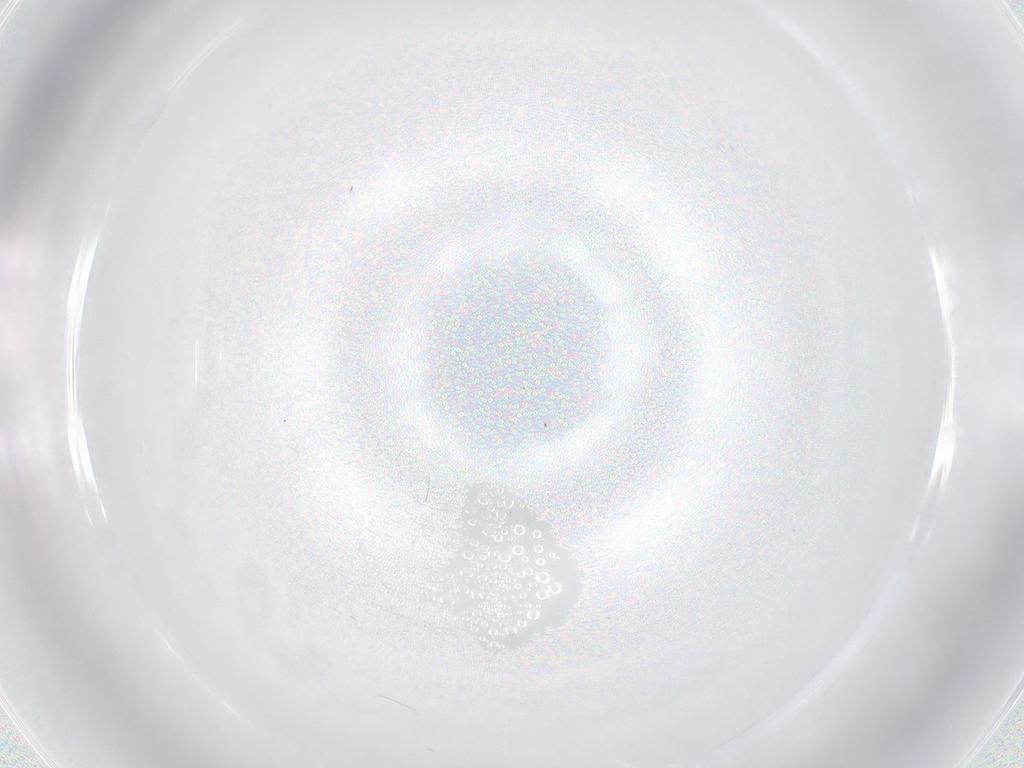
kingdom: Animalia
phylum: Arthropoda
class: Insecta
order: Diptera
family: Cecidomyiidae
